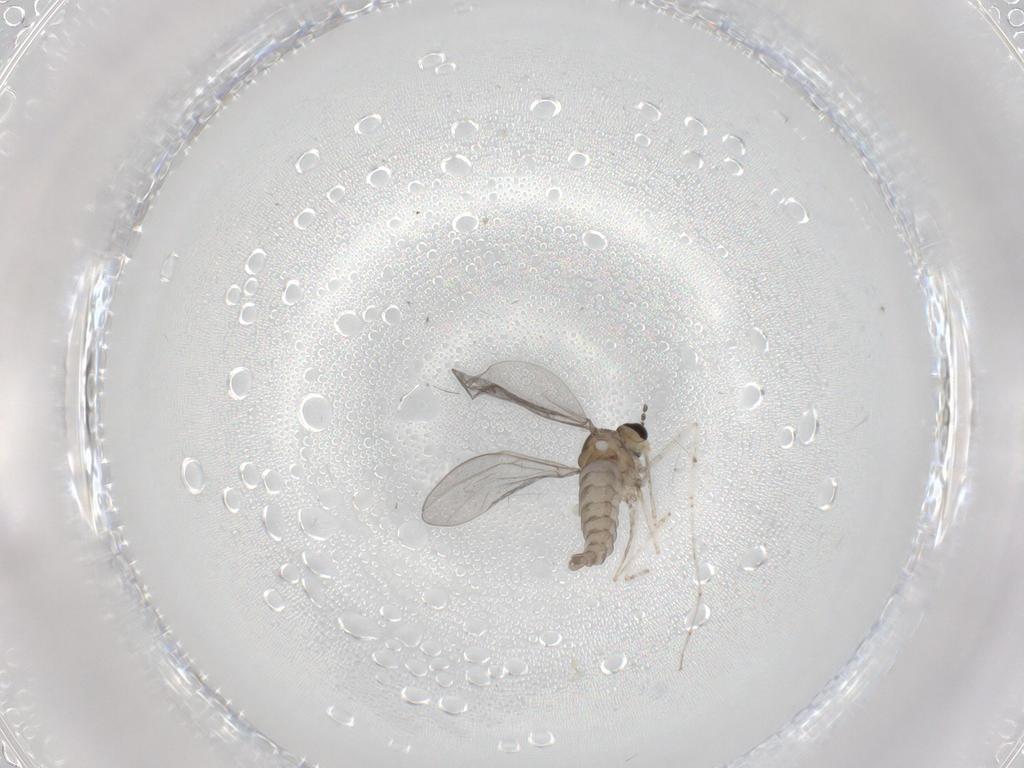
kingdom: Animalia
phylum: Arthropoda
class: Insecta
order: Diptera
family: Cecidomyiidae
